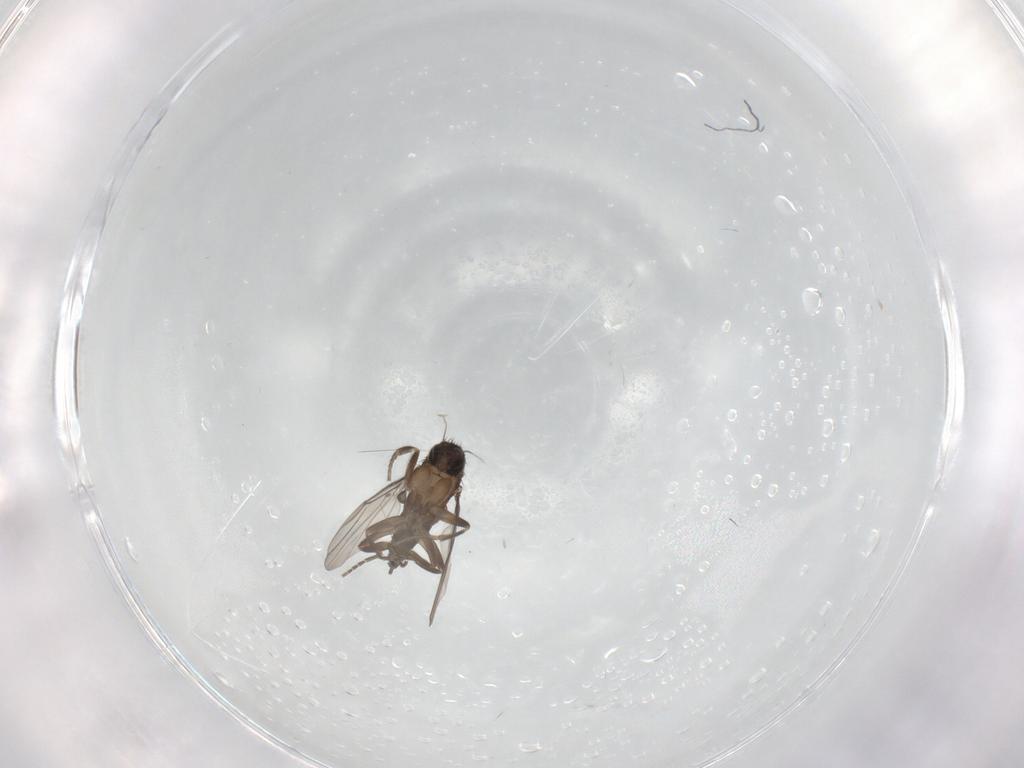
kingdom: Animalia
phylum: Arthropoda
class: Insecta
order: Diptera
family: Phoridae
